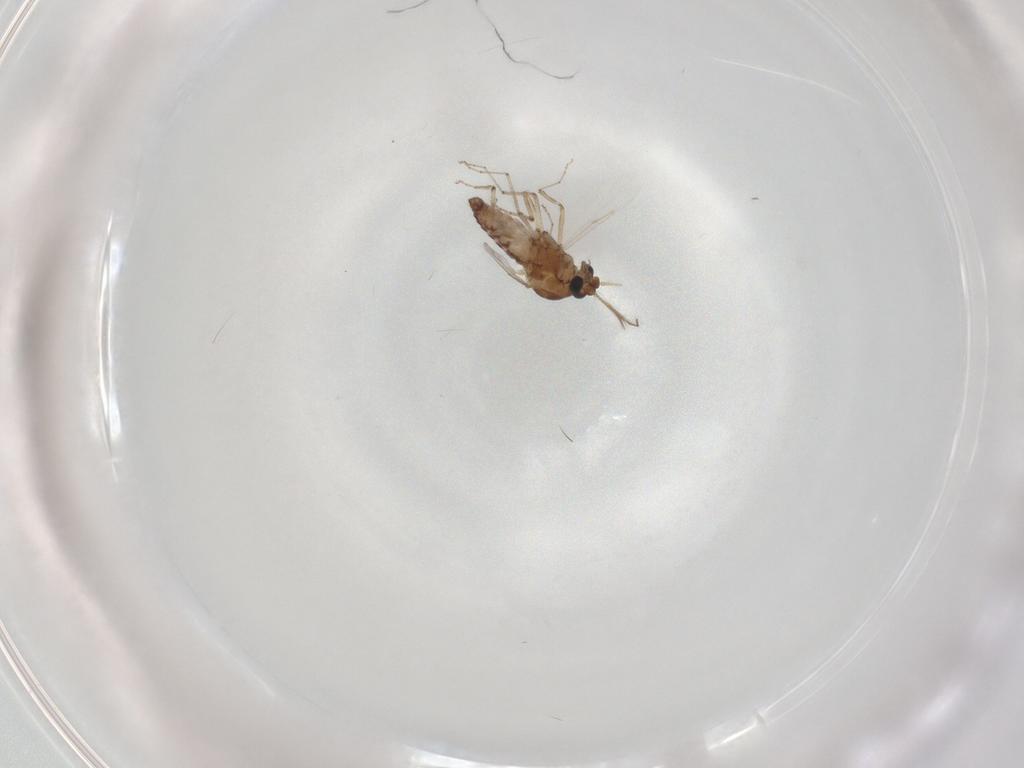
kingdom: Animalia
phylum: Arthropoda
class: Insecta
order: Diptera
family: Ceratopogonidae
